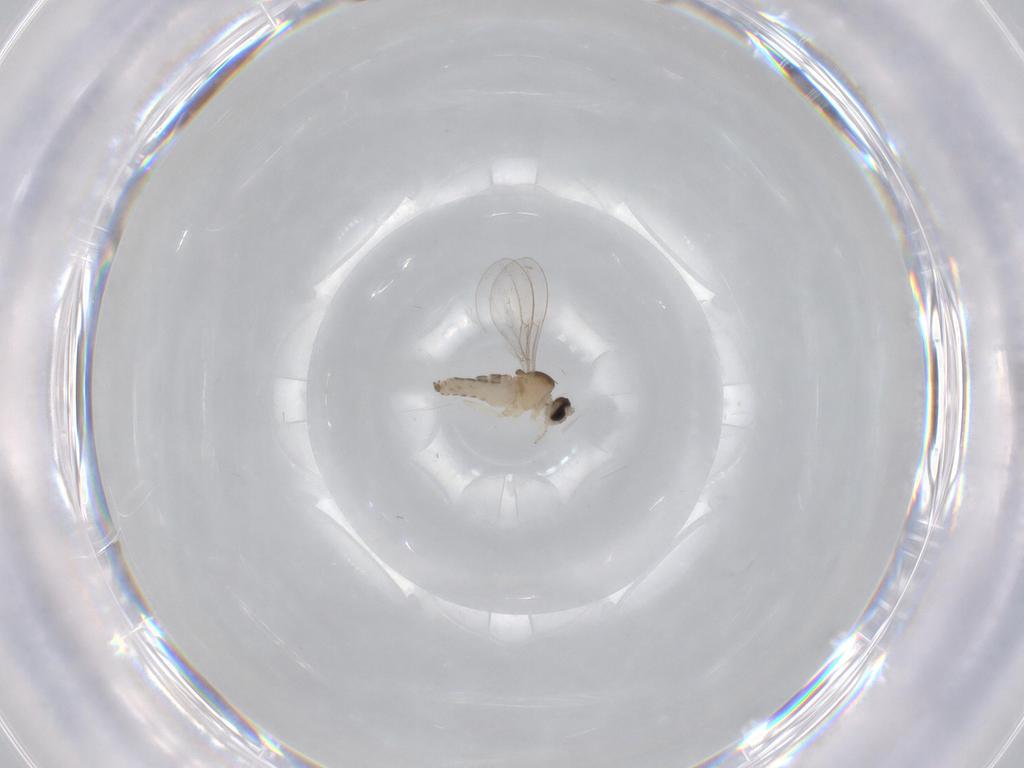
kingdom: Animalia
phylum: Arthropoda
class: Insecta
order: Diptera
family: Cecidomyiidae
